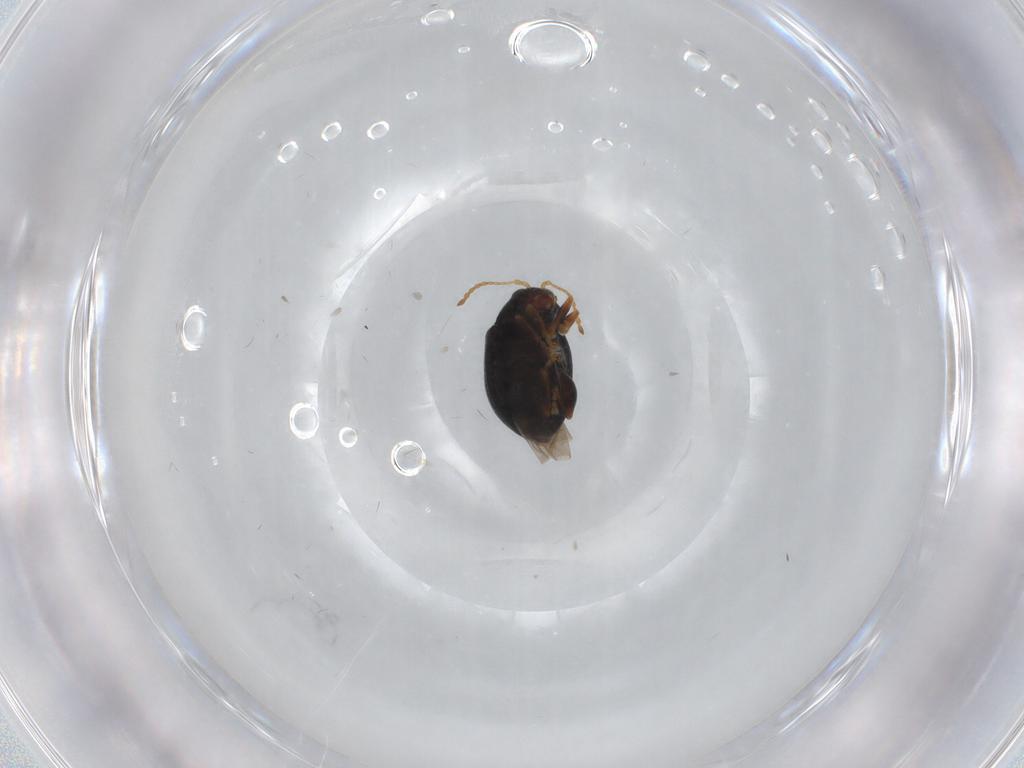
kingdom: Animalia
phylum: Arthropoda
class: Insecta
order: Coleoptera
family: Chrysomelidae
